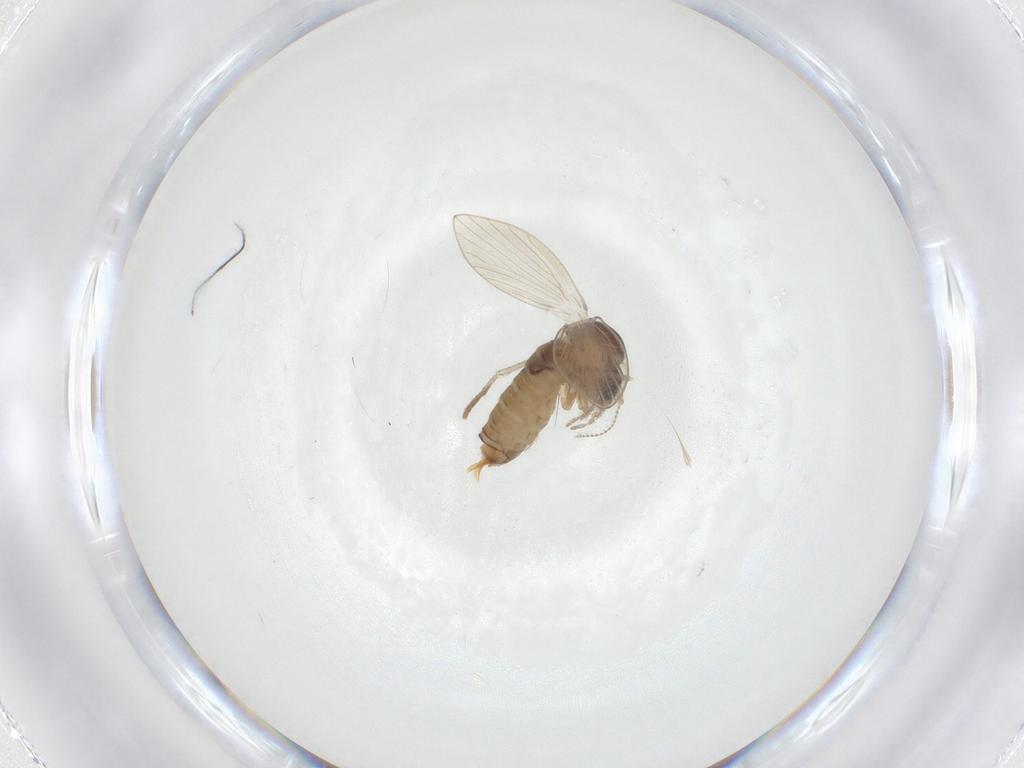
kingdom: Animalia
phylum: Arthropoda
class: Insecta
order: Diptera
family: Psychodidae
